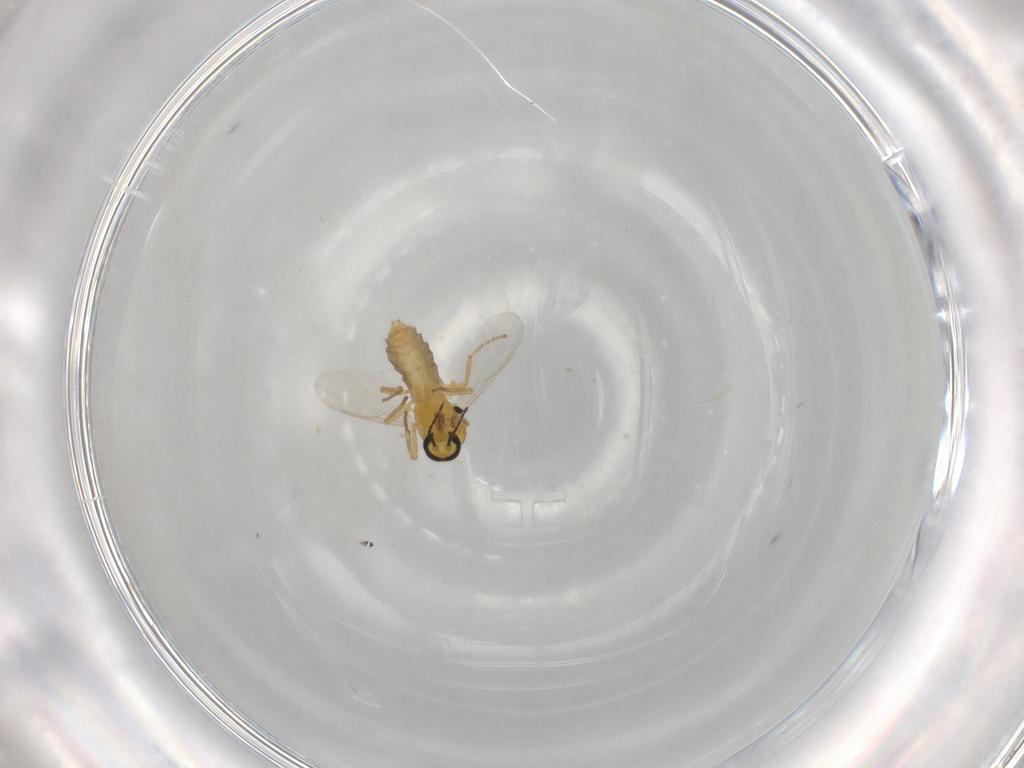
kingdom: Animalia
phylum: Arthropoda
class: Insecta
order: Diptera
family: Ceratopogonidae
